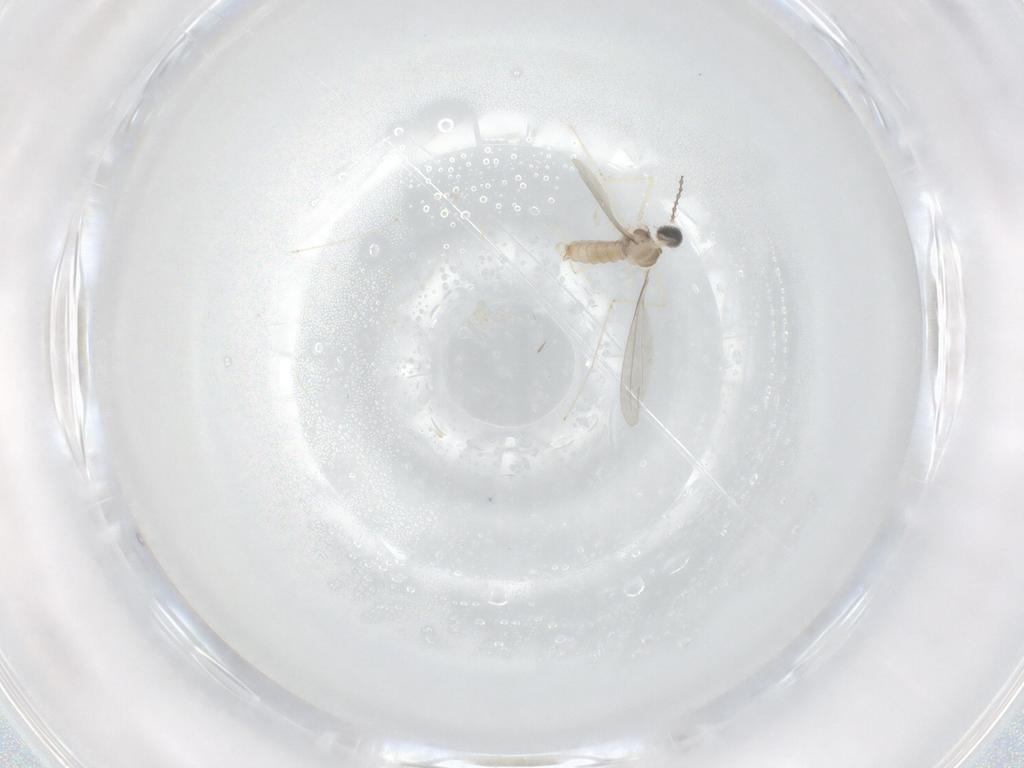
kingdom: Animalia
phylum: Arthropoda
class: Insecta
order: Diptera
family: Cecidomyiidae
